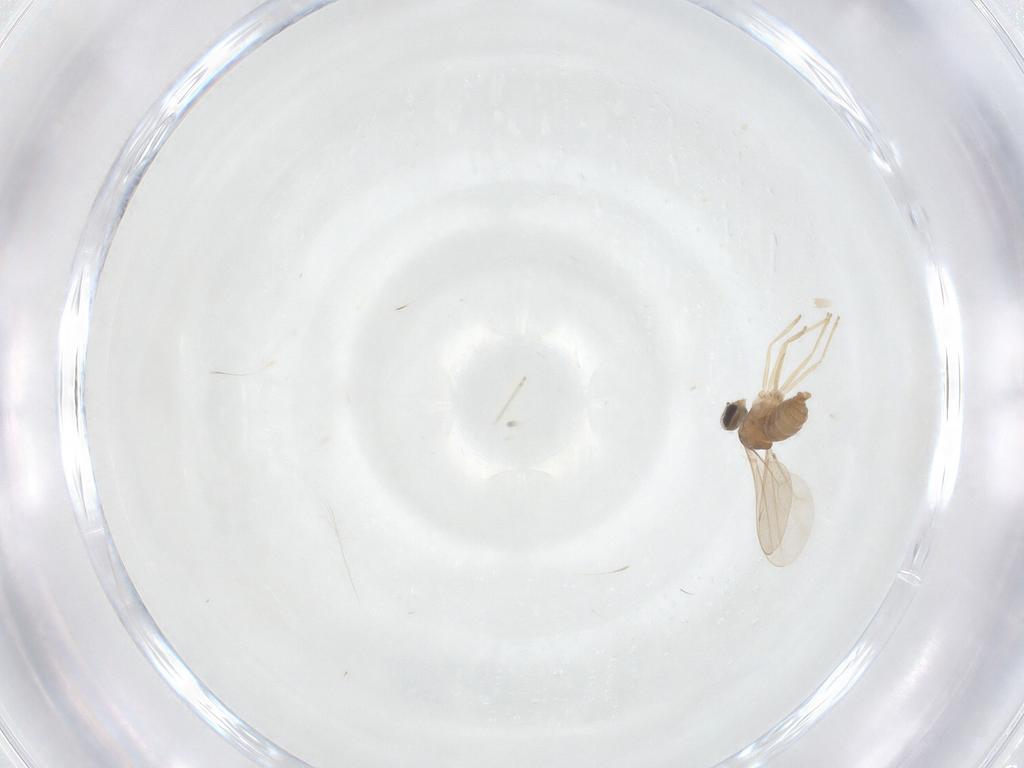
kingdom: Animalia
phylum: Arthropoda
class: Insecta
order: Diptera
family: Scatopsidae
